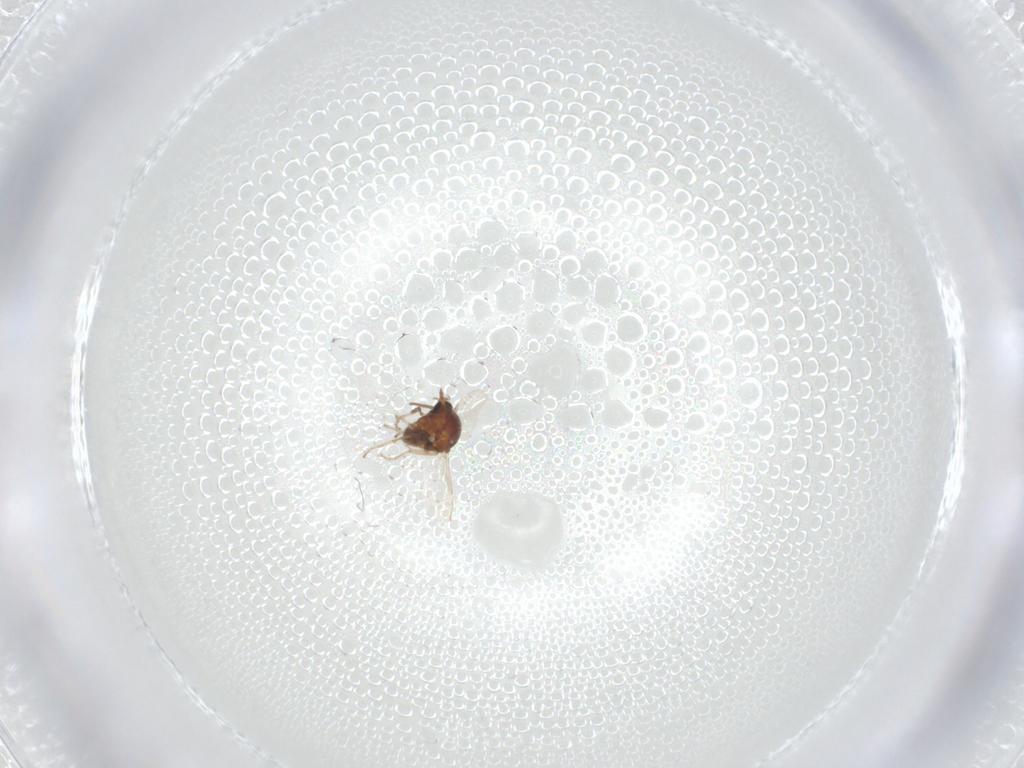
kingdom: Animalia
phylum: Arthropoda
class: Insecta
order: Diptera
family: Ceratopogonidae
